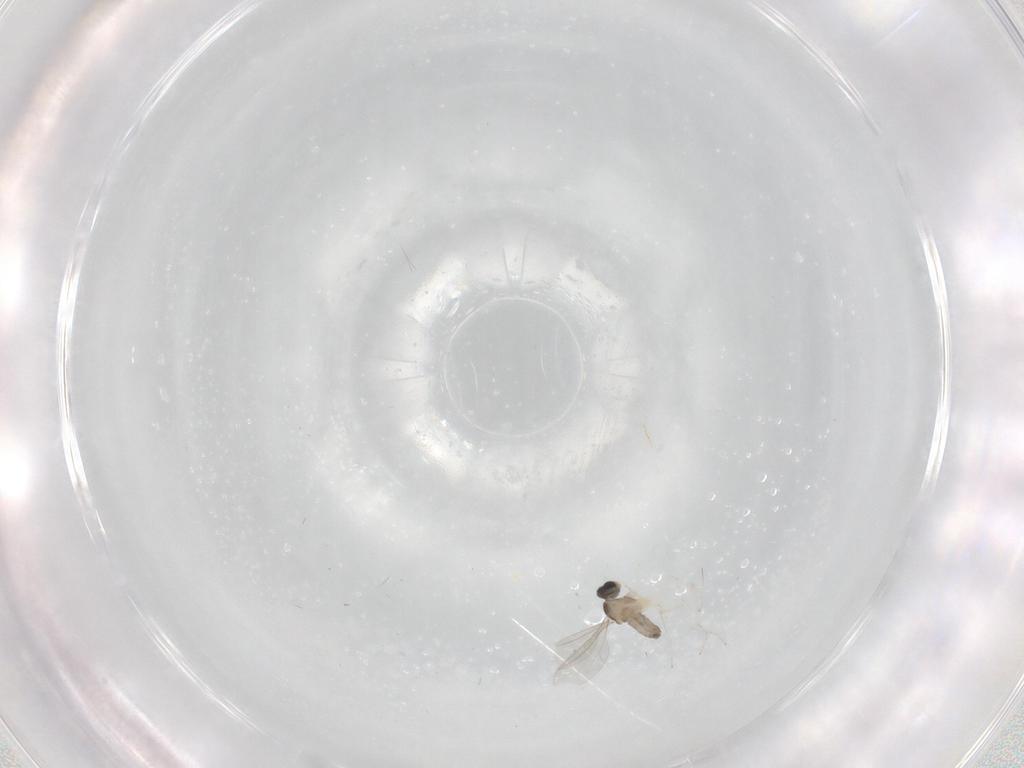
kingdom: Animalia
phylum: Arthropoda
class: Insecta
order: Diptera
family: Cecidomyiidae
